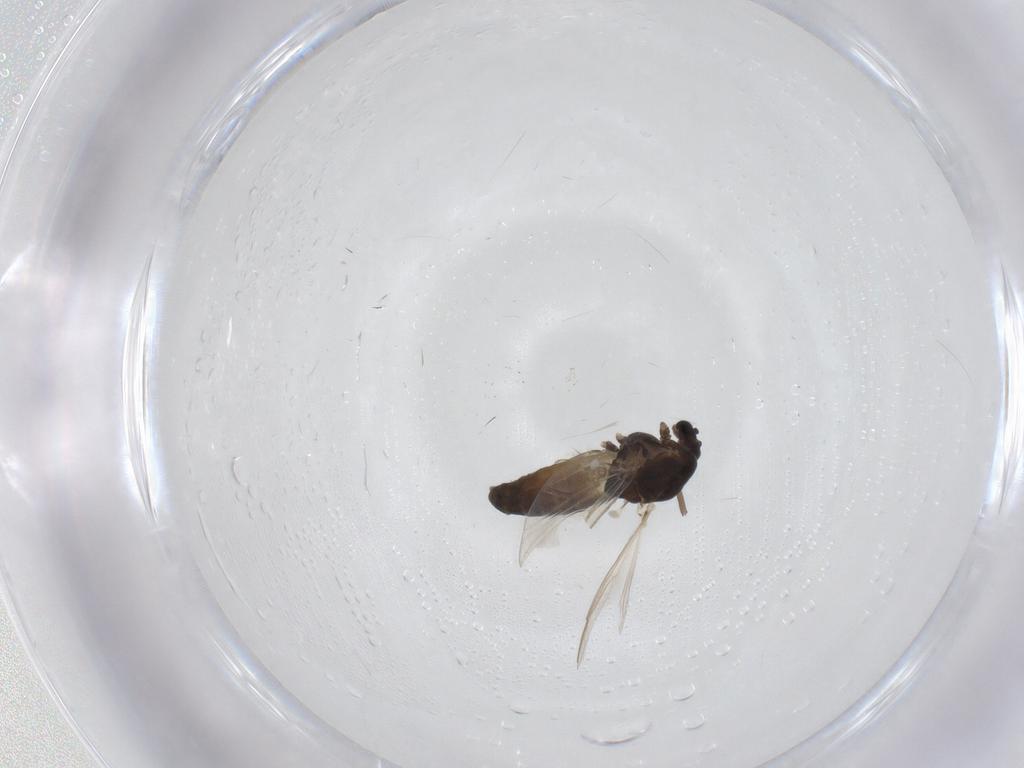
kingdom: Animalia
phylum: Arthropoda
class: Insecta
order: Diptera
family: Chironomidae
